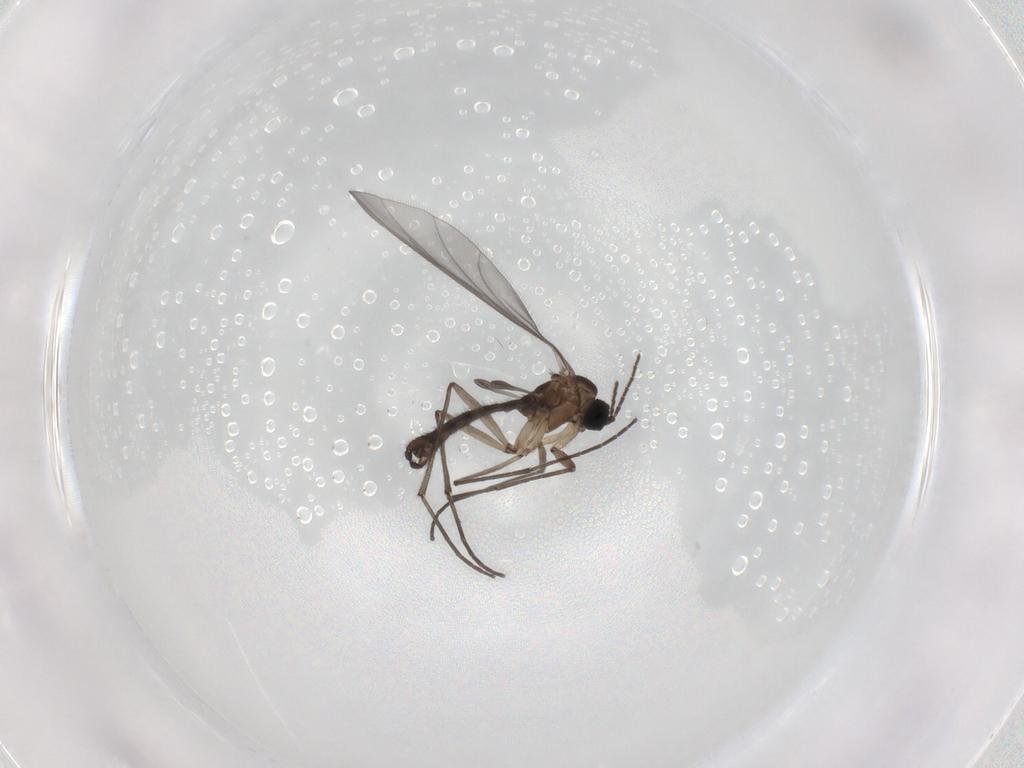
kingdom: Animalia
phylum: Arthropoda
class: Insecta
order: Diptera
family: Sciaridae
